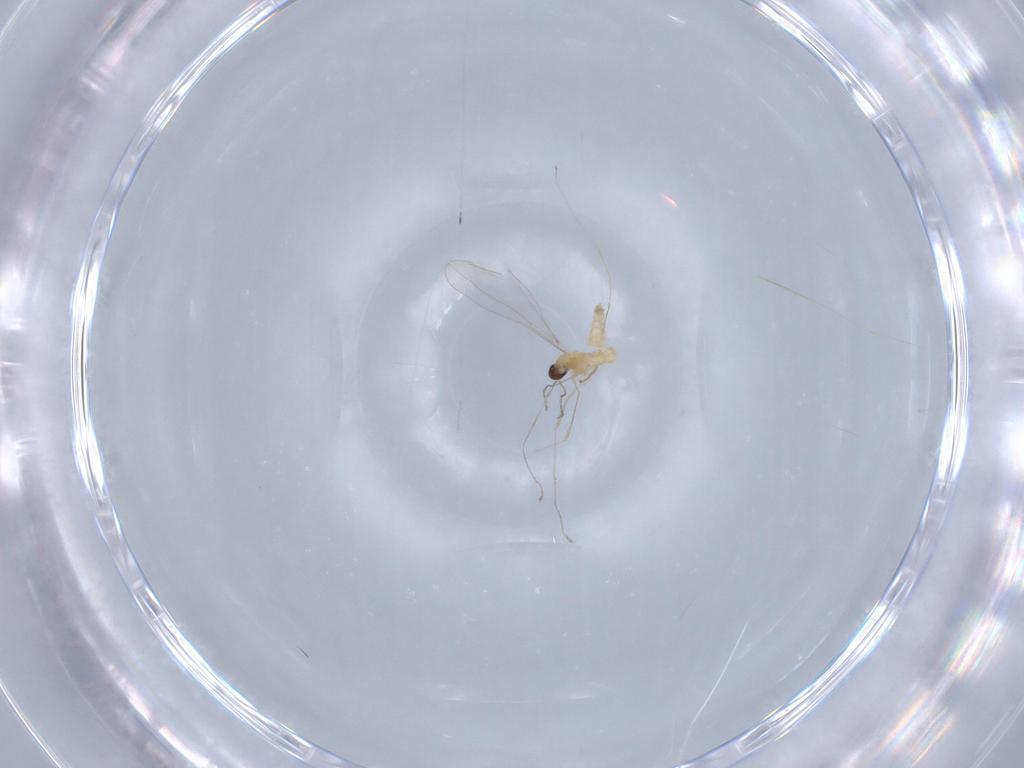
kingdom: Animalia
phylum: Arthropoda
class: Insecta
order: Diptera
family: Cecidomyiidae
